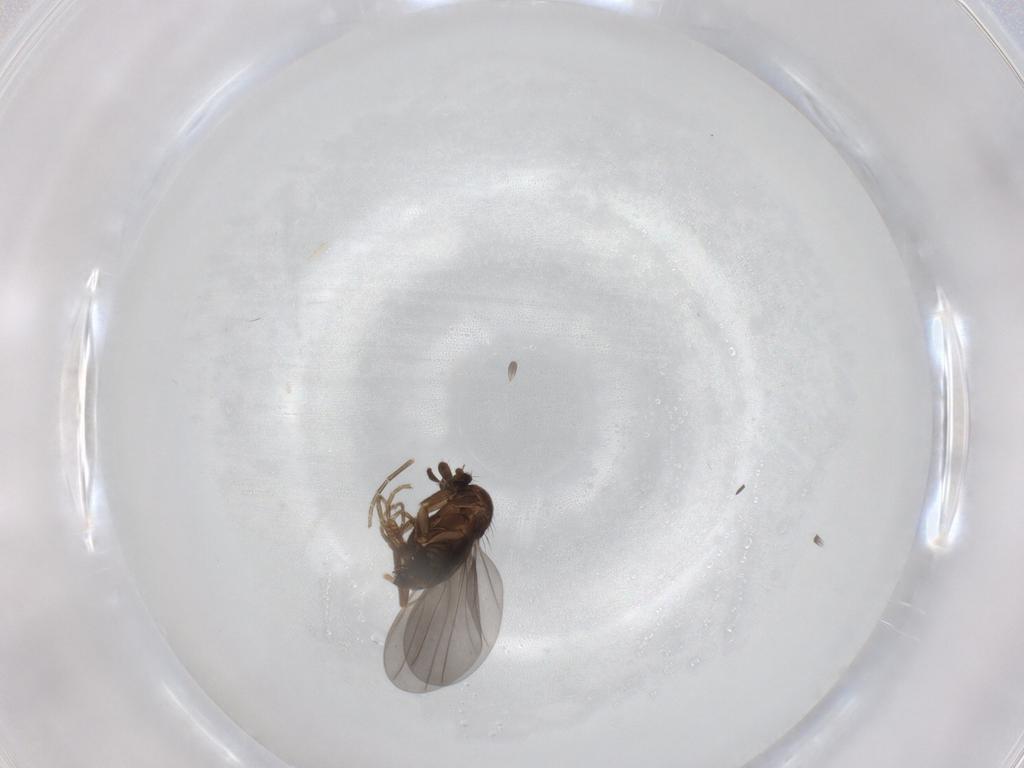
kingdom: Animalia
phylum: Arthropoda
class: Insecta
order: Diptera
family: Phoridae
